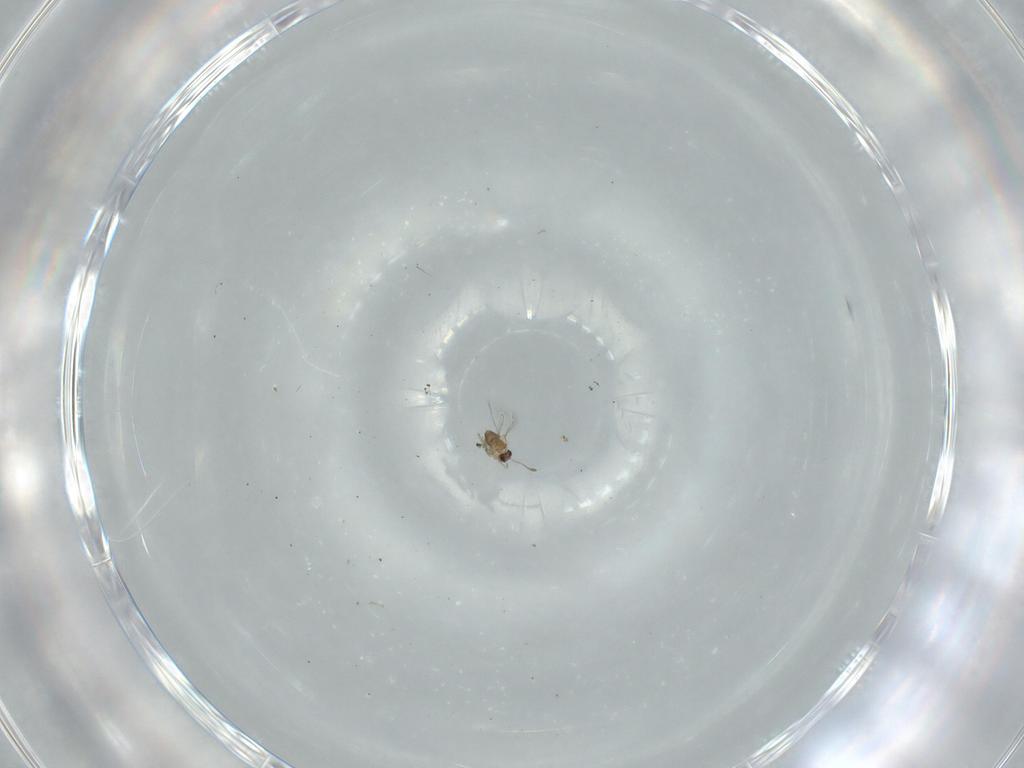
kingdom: Animalia
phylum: Arthropoda
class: Insecta
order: Hymenoptera
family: Mymaridae
